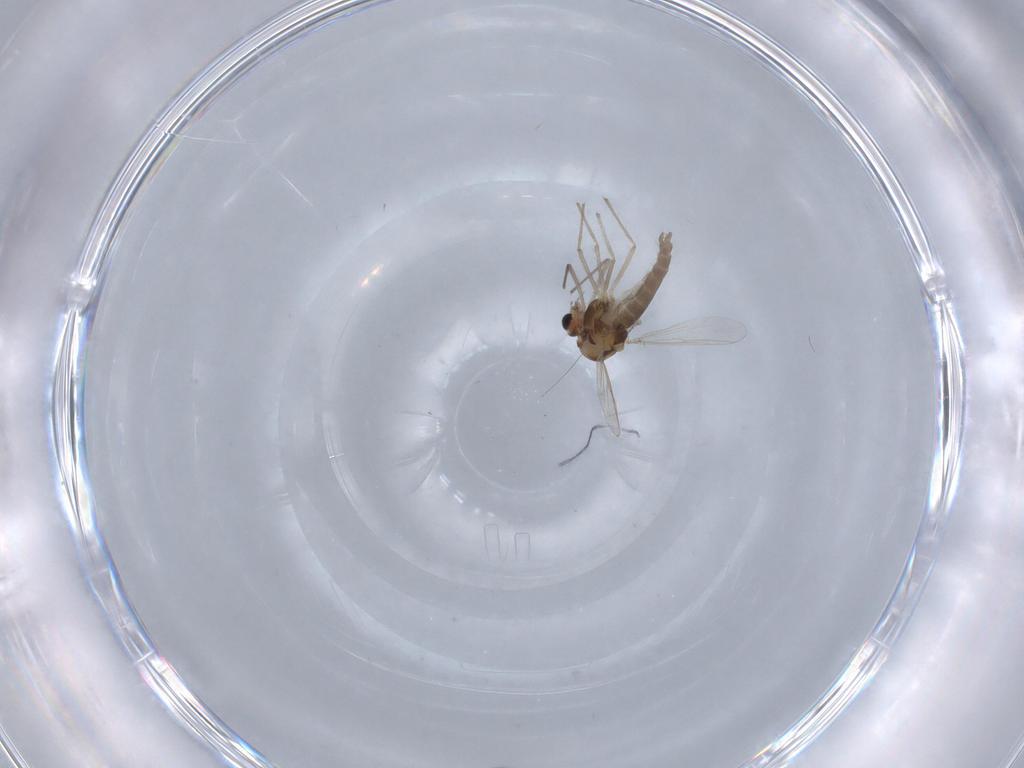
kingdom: Animalia
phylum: Arthropoda
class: Insecta
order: Diptera
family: Chironomidae
